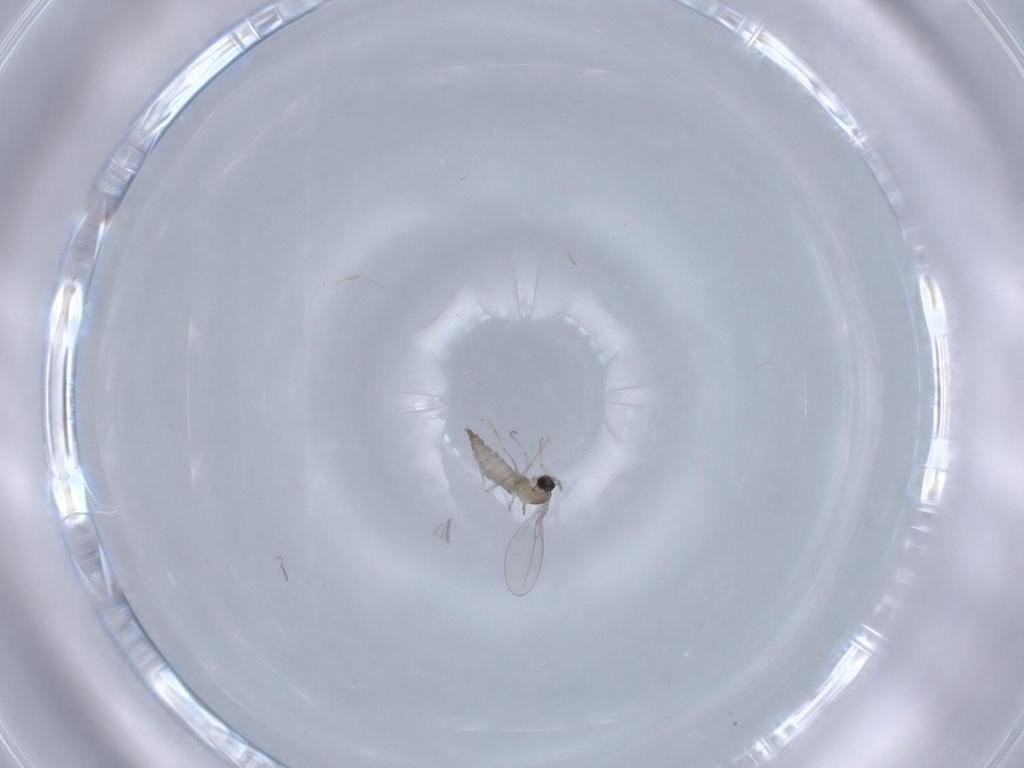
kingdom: Animalia
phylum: Arthropoda
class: Insecta
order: Diptera
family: Cecidomyiidae
